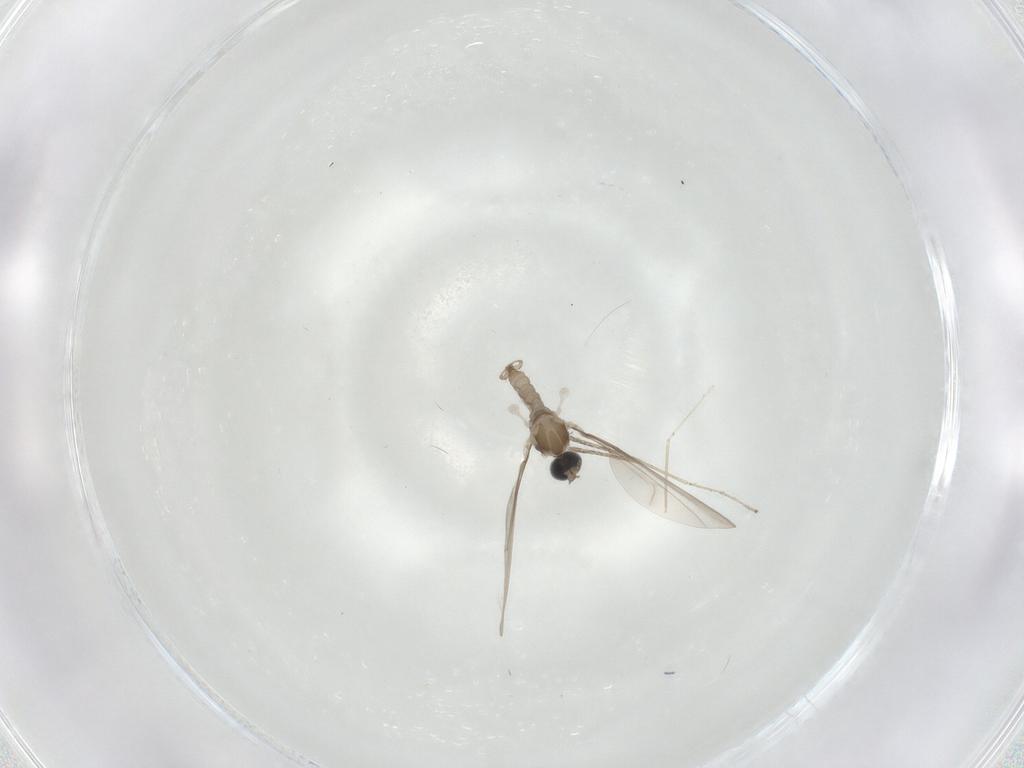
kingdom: Animalia
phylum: Arthropoda
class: Insecta
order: Diptera
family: Cecidomyiidae
